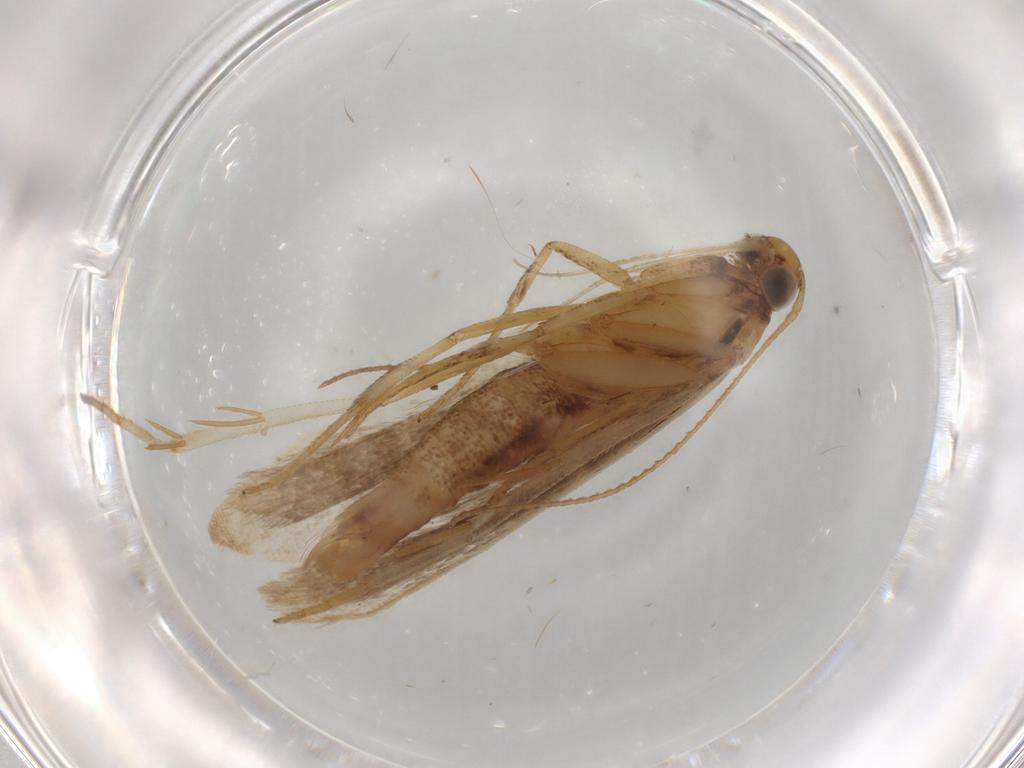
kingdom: Animalia
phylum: Arthropoda
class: Insecta
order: Lepidoptera
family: Gelechiidae
